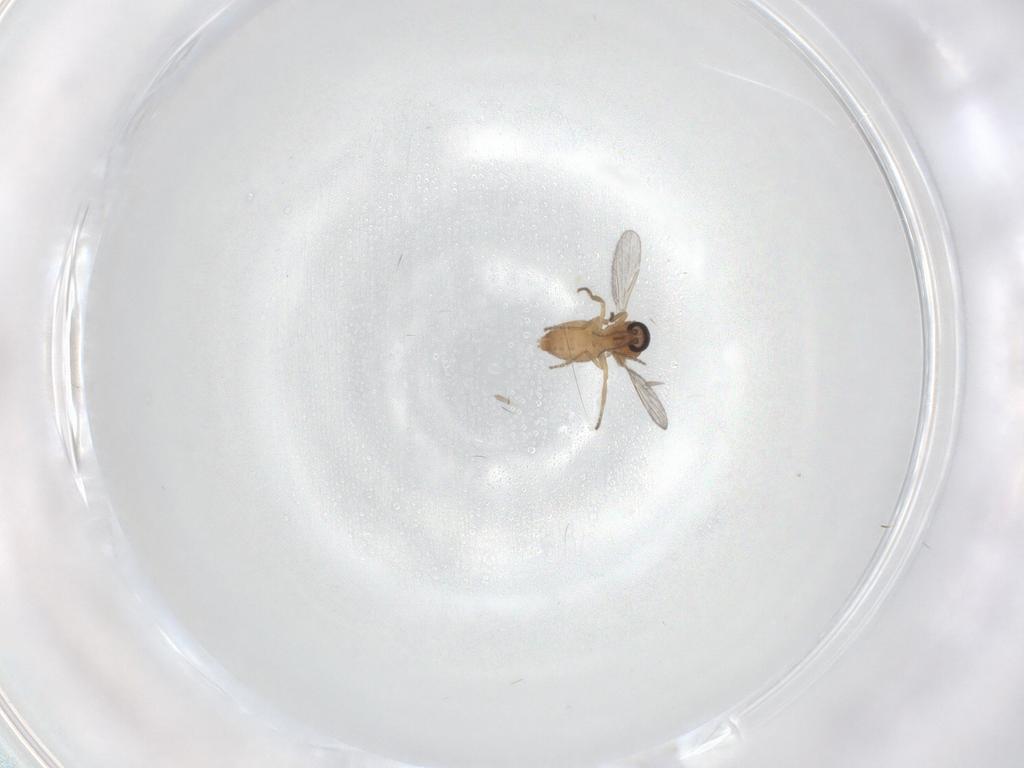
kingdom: Animalia
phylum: Arthropoda
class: Insecta
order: Diptera
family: Ceratopogonidae
